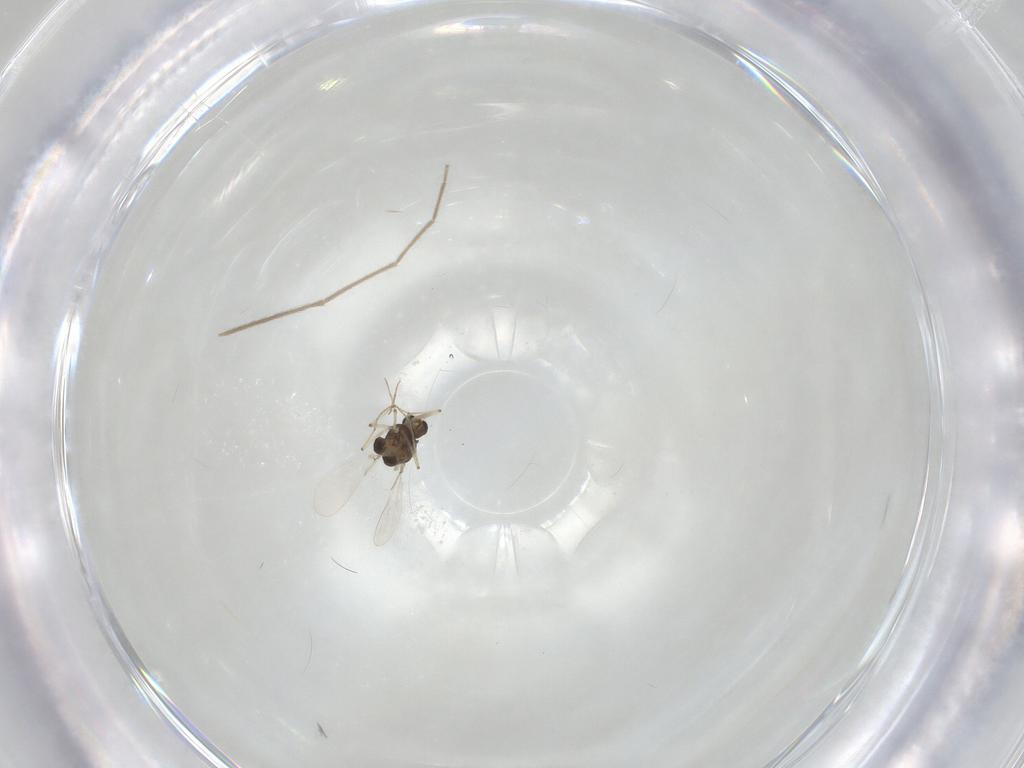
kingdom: Animalia
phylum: Arthropoda
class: Insecta
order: Diptera
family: Chironomidae
